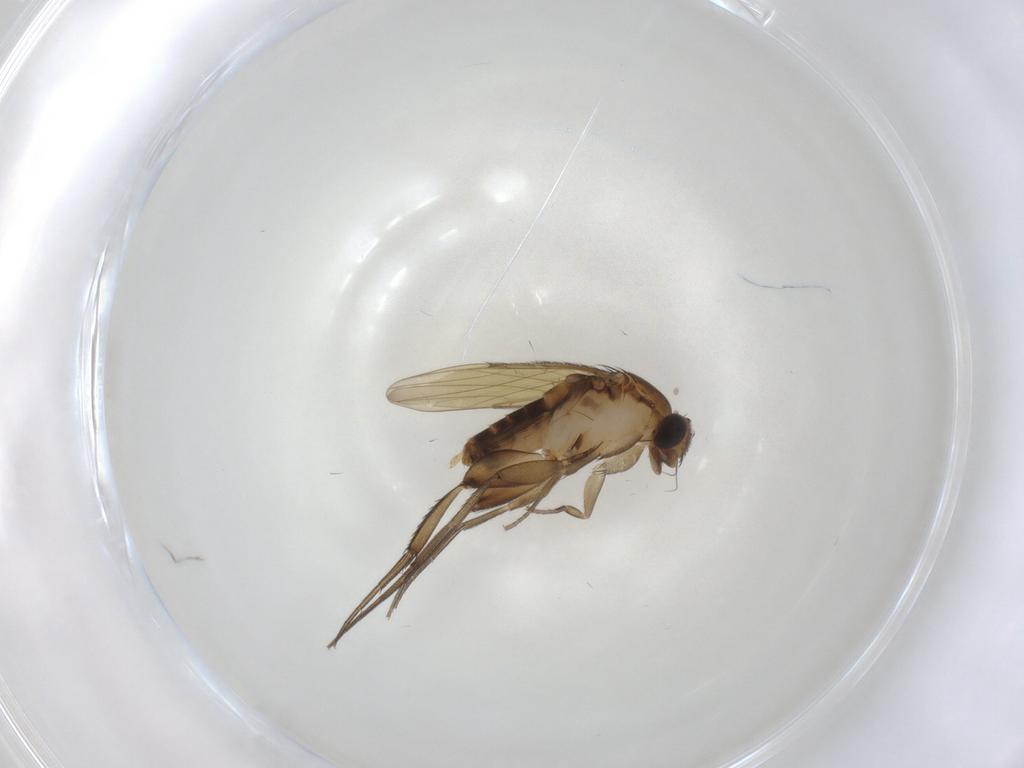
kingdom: Animalia
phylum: Arthropoda
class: Insecta
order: Diptera
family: Phoridae
